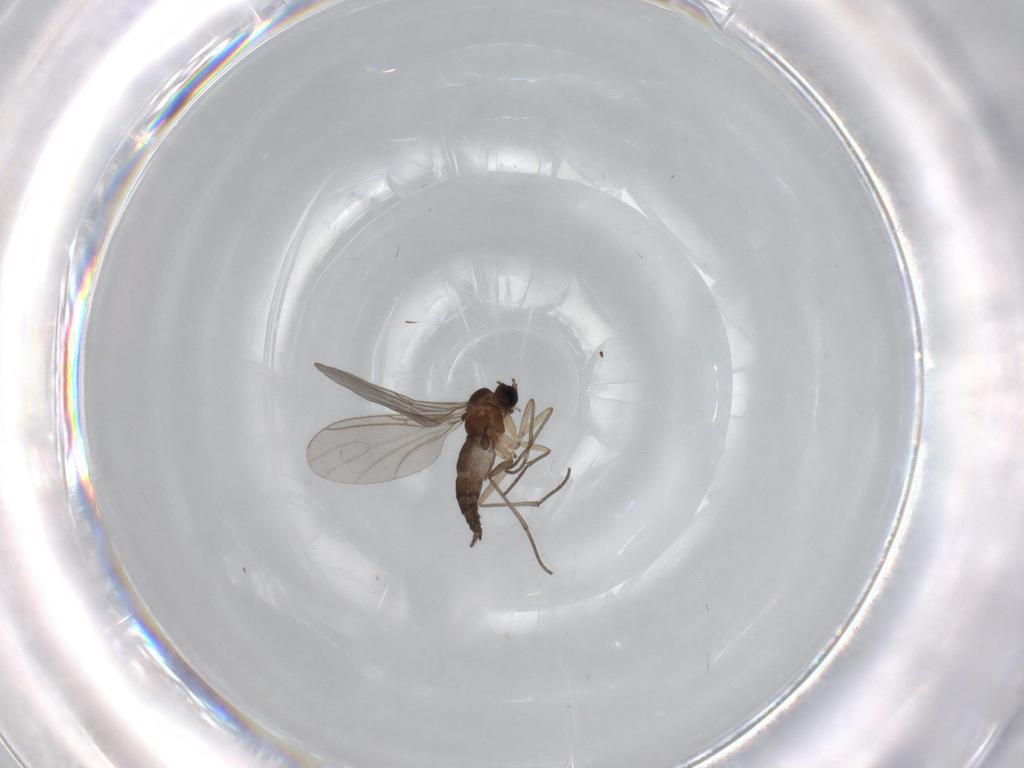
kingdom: Animalia
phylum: Arthropoda
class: Insecta
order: Diptera
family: Sciaridae
